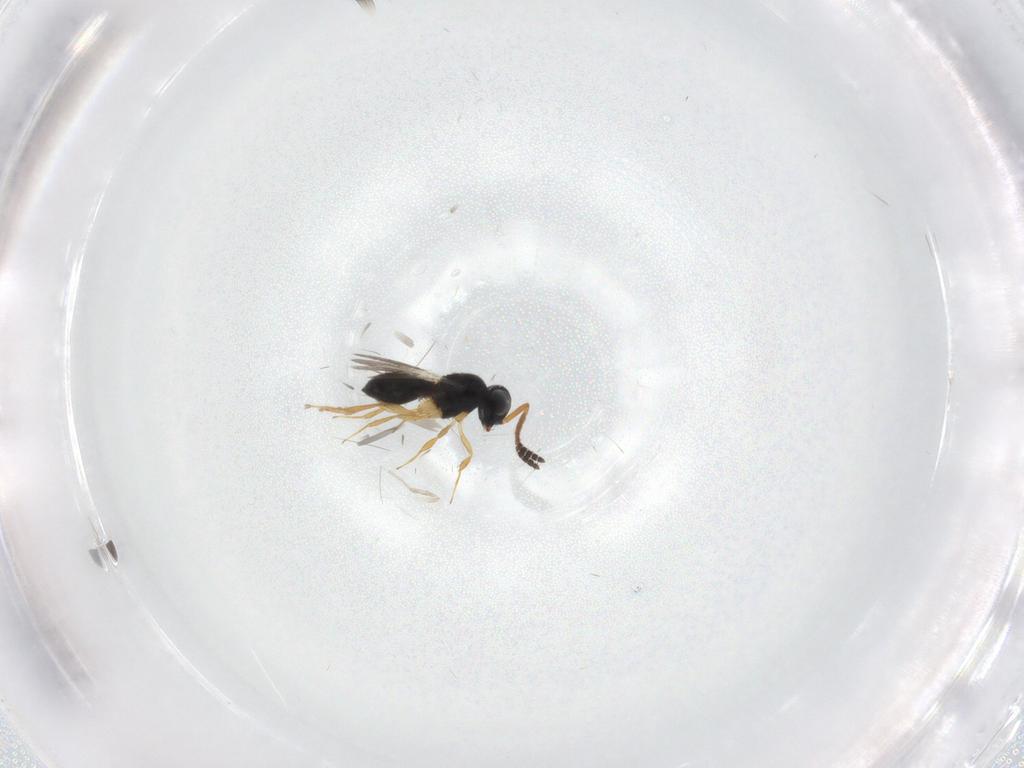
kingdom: Animalia
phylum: Arthropoda
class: Insecta
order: Hymenoptera
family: Scelionidae
